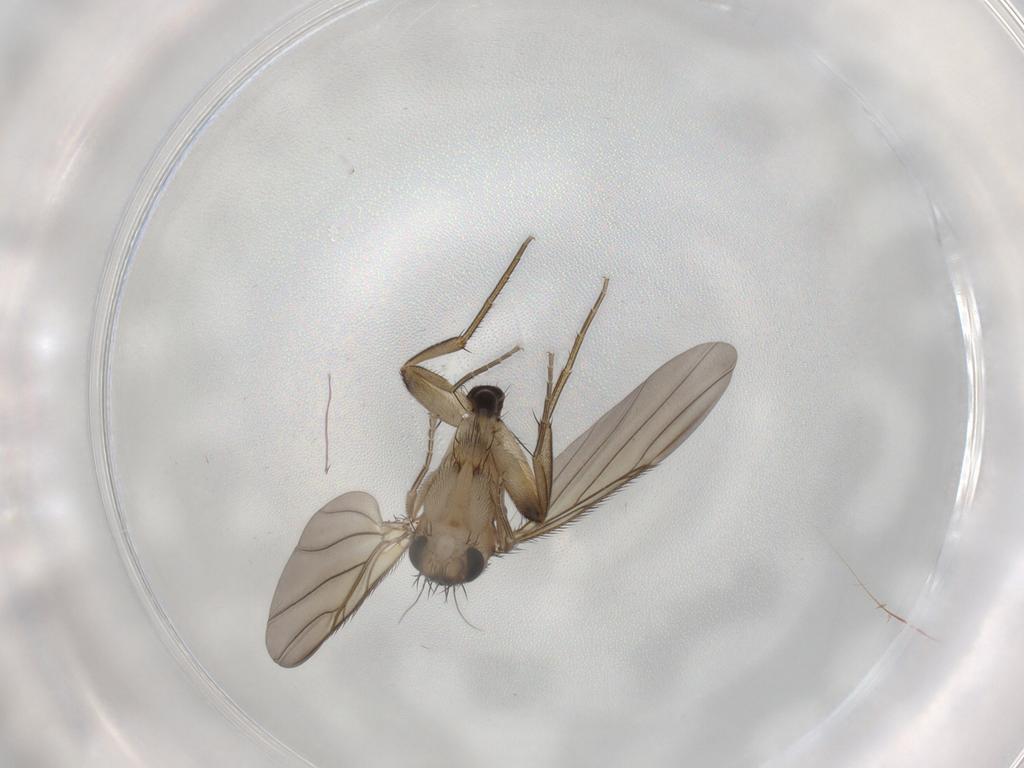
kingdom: Animalia
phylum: Arthropoda
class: Insecta
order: Diptera
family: Phoridae
